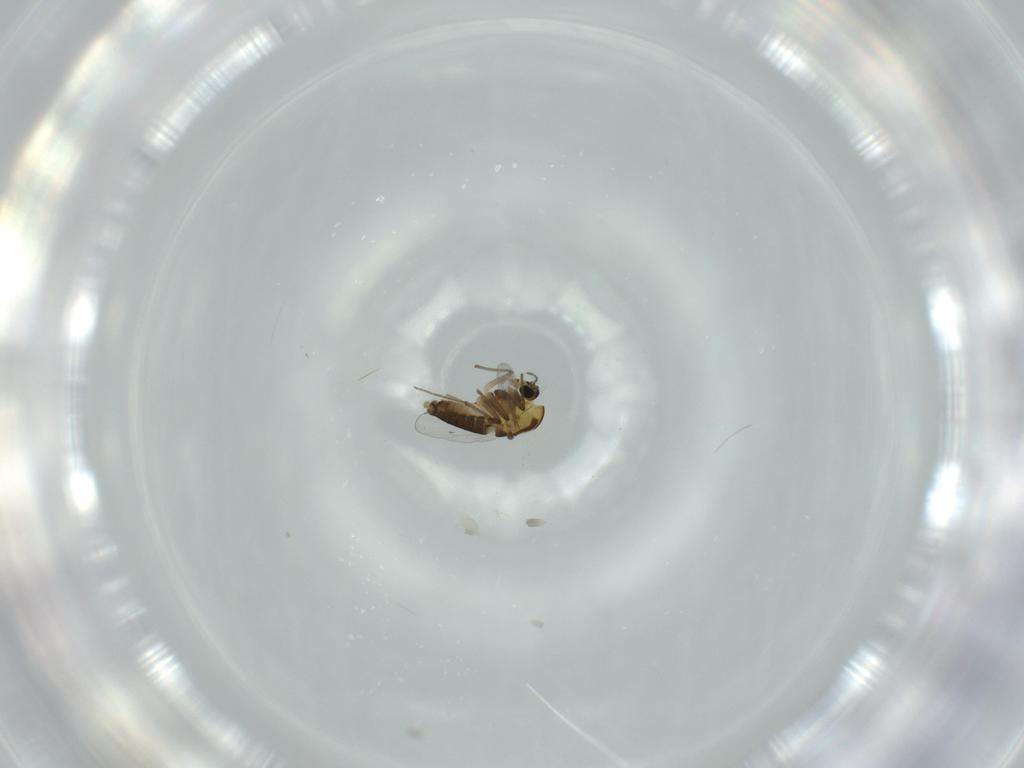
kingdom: Animalia
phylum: Arthropoda
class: Insecta
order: Diptera
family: Chironomidae
